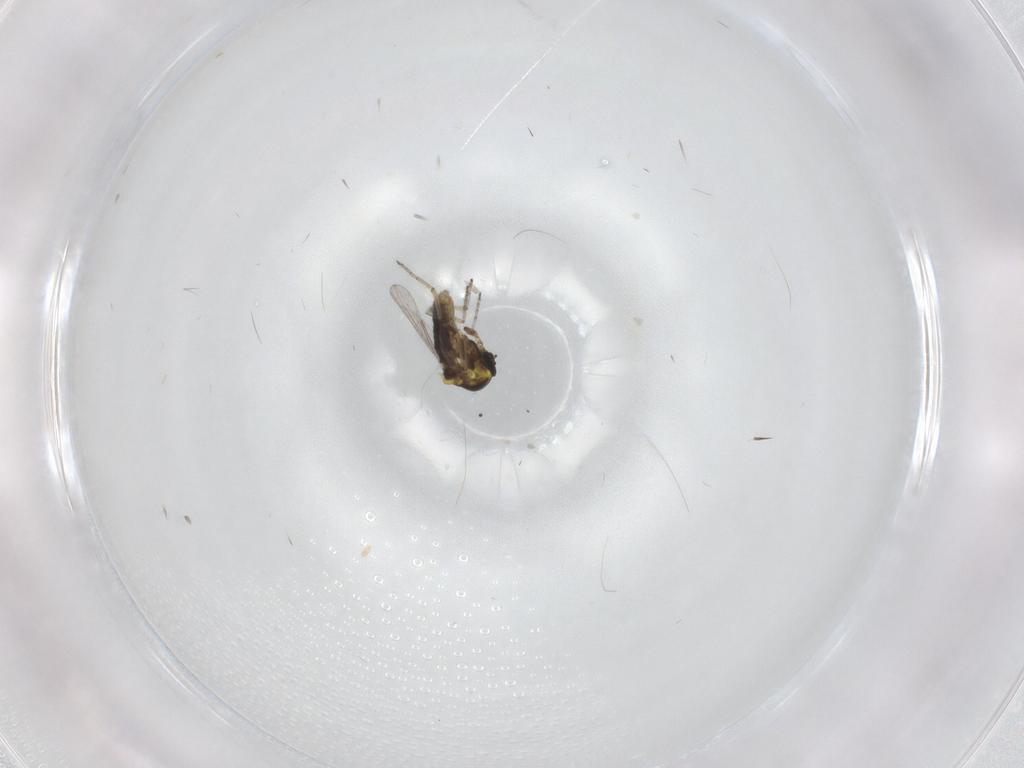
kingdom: Animalia
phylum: Arthropoda
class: Insecta
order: Diptera
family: Ceratopogonidae
